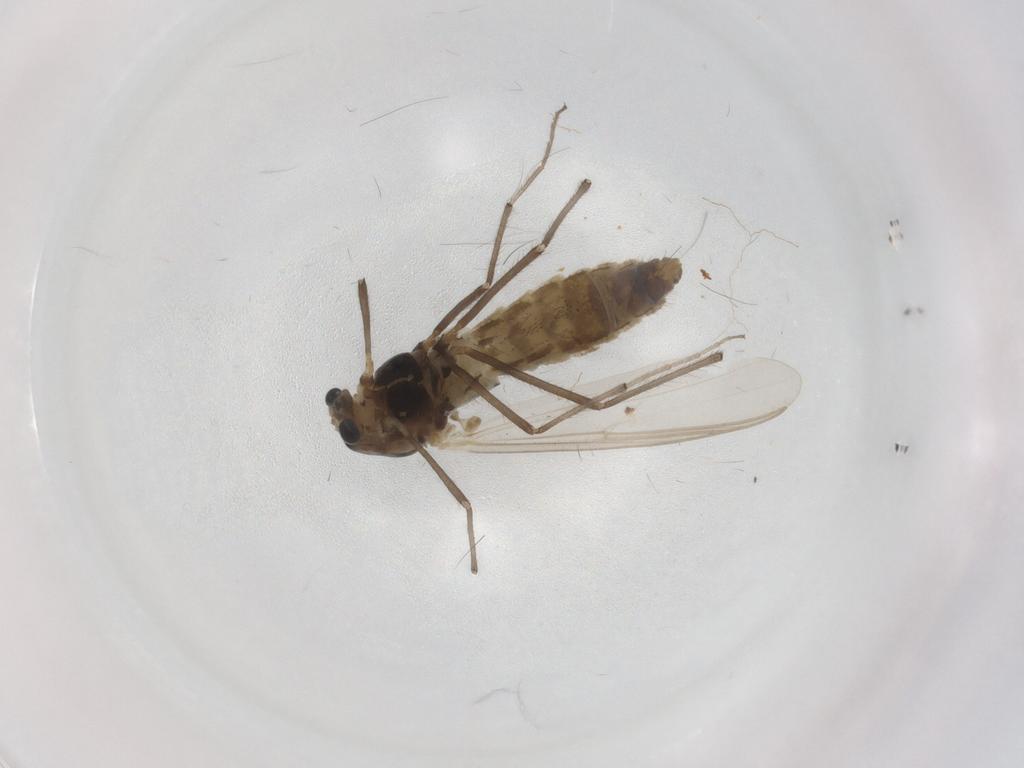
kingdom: Animalia
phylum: Arthropoda
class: Insecta
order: Diptera
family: Chironomidae
